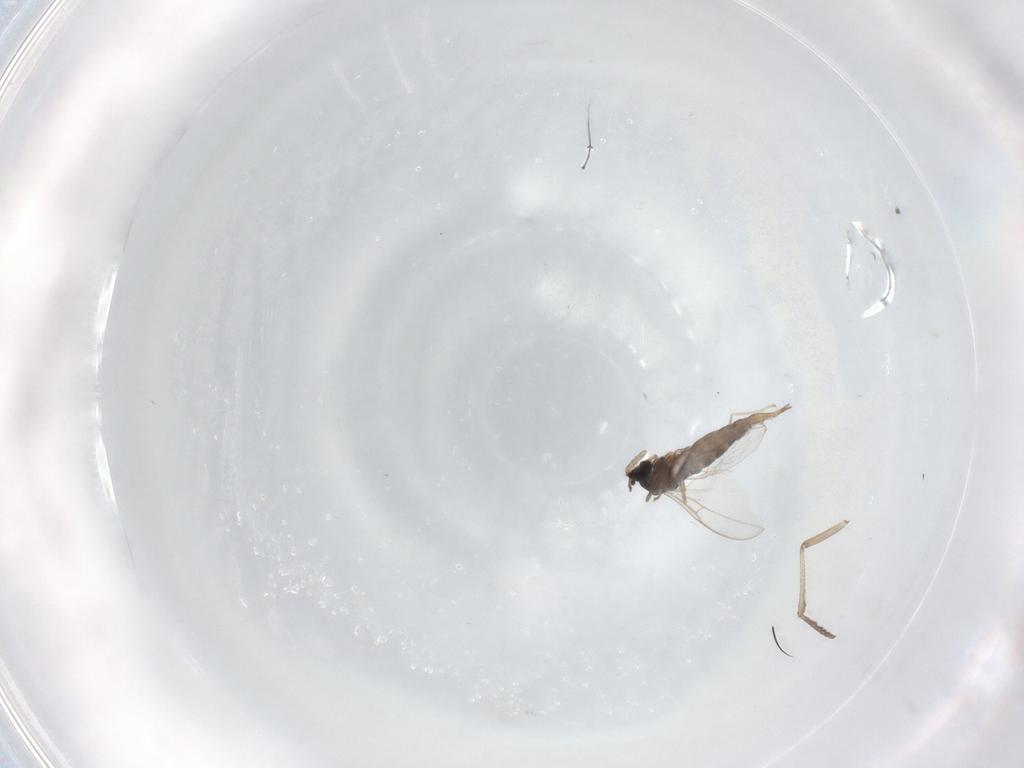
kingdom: Animalia
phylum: Arthropoda
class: Insecta
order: Diptera
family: Cecidomyiidae
